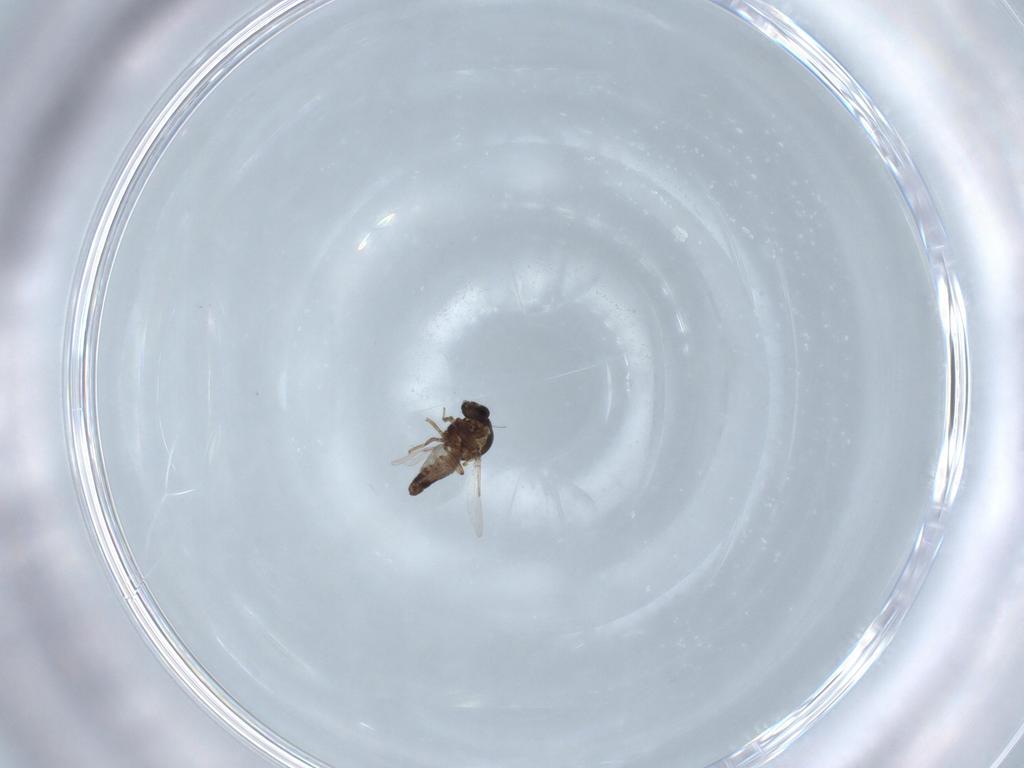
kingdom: Animalia
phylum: Arthropoda
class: Insecta
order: Diptera
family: Ceratopogonidae
